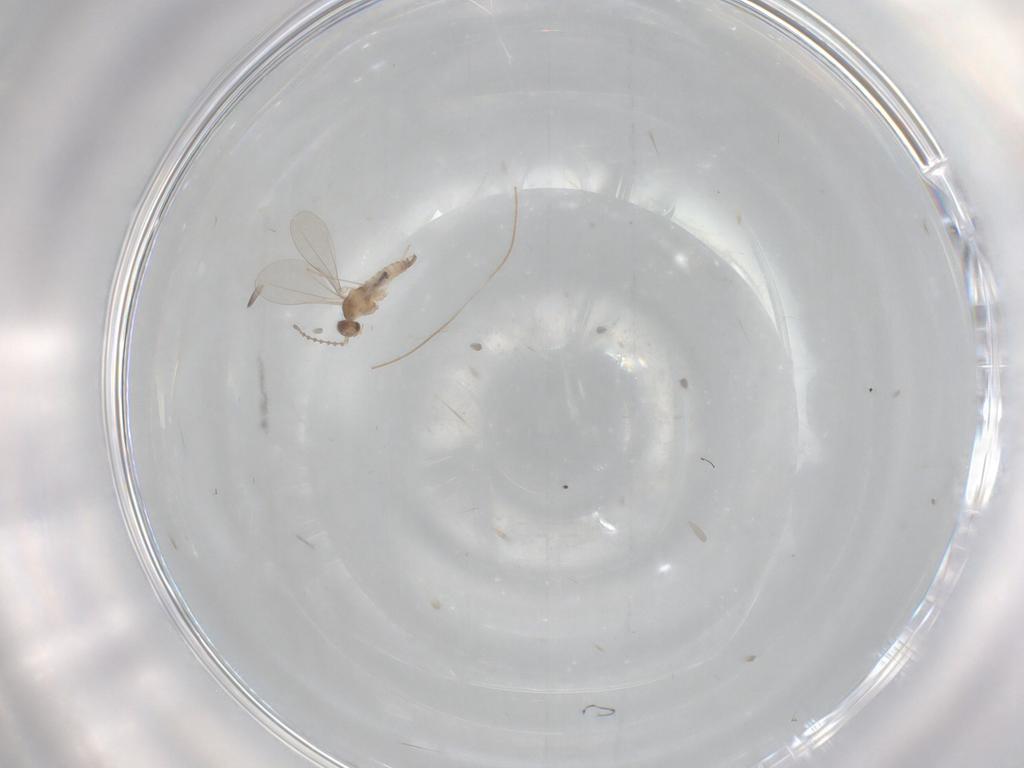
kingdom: Animalia
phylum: Arthropoda
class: Insecta
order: Diptera
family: Cecidomyiidae
